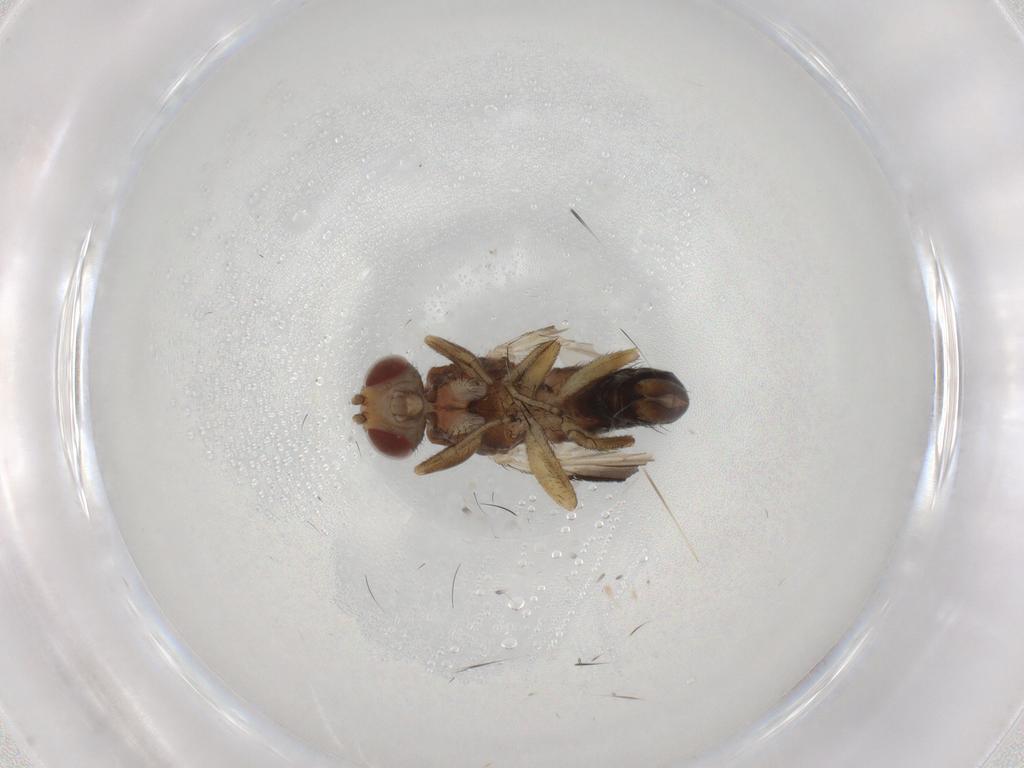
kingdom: Animalia
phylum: Arthropoda
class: Insecta
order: Diptera
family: Heleomyzidae
